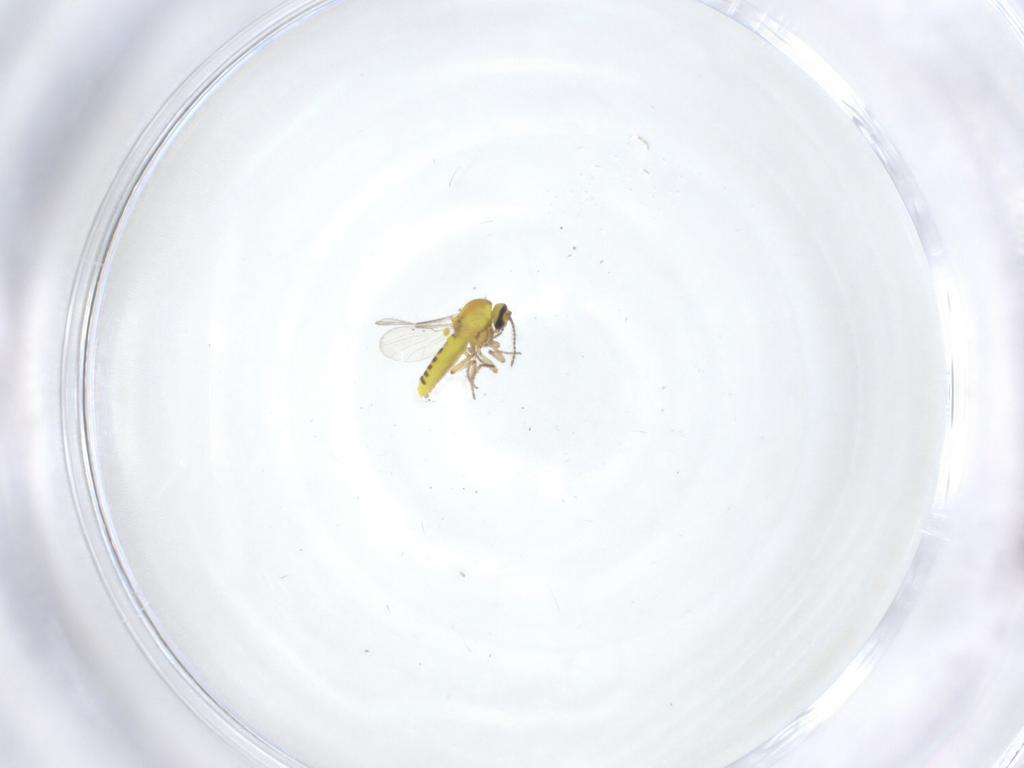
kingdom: Animalia
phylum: Arthropoda
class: Insecta
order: Diptera
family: Ceratopogonidae
